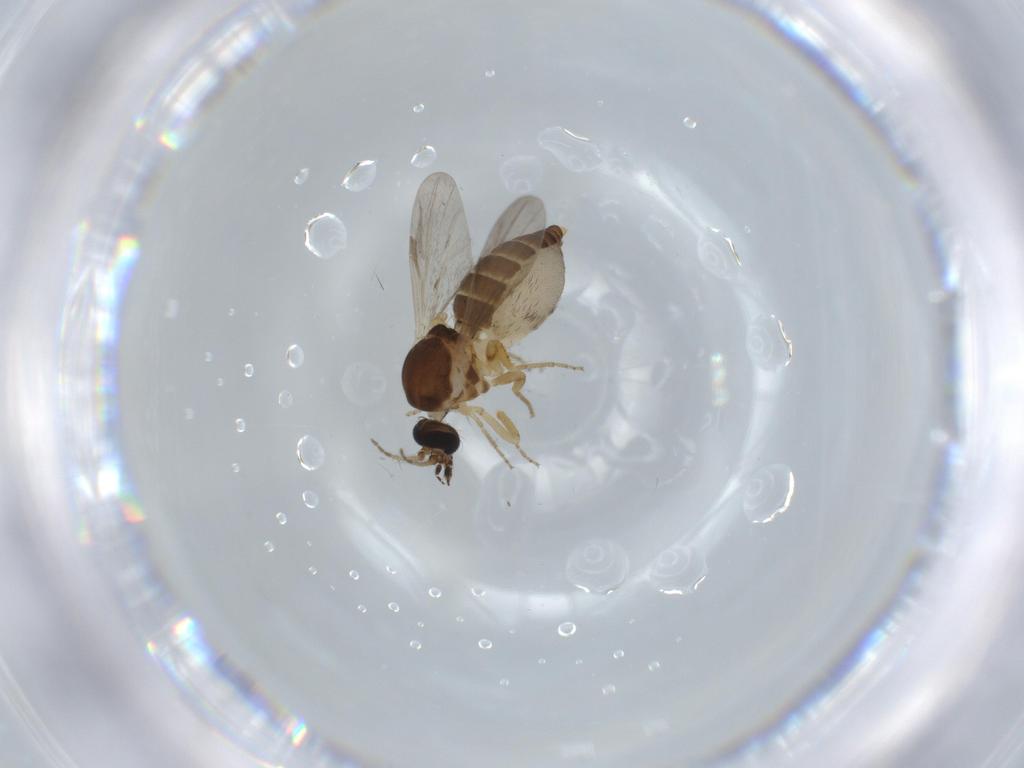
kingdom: Animalia
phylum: Arthropoda
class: Insecta
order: Diptera
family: Ceratopogonidae
